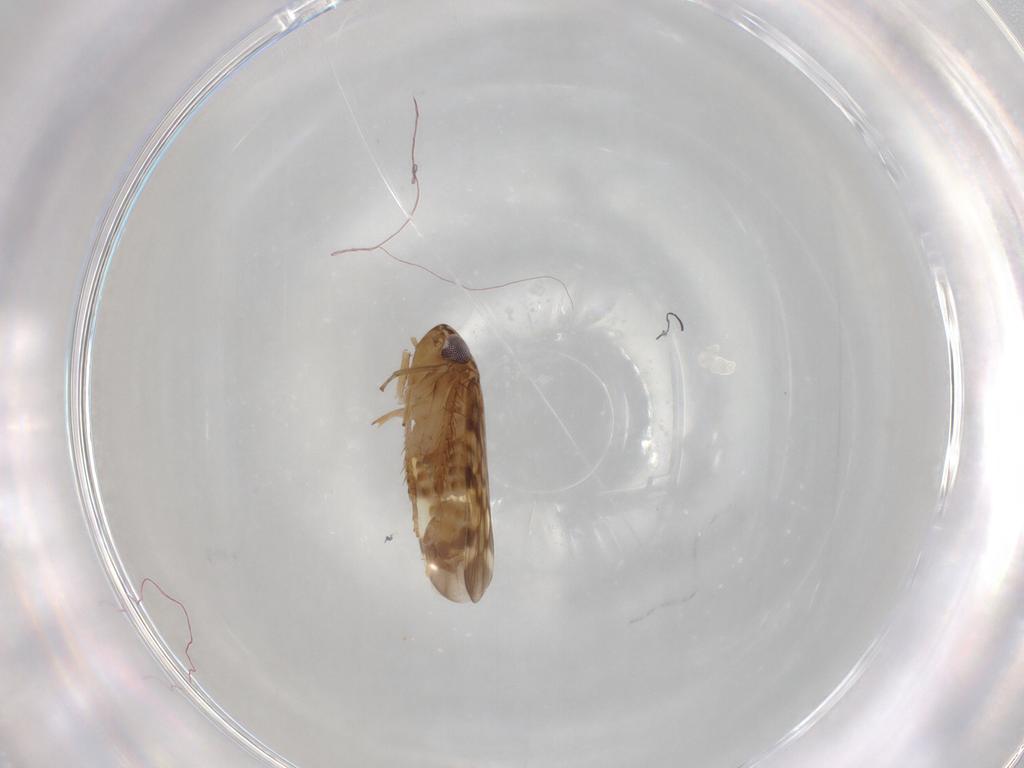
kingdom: Animalia
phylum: Arthropoda
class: Insecta
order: Hemiptera
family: Cicadellidae
